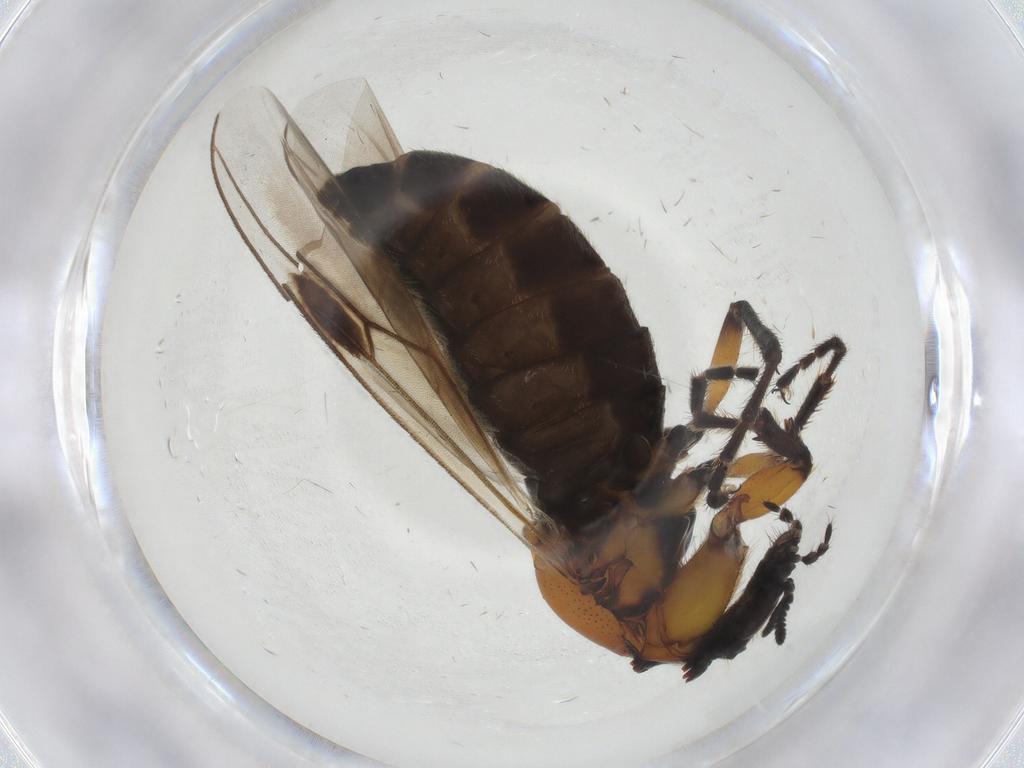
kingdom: Animalia
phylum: Arthropoda
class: Insecta
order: Diptera
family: Bibionidae
